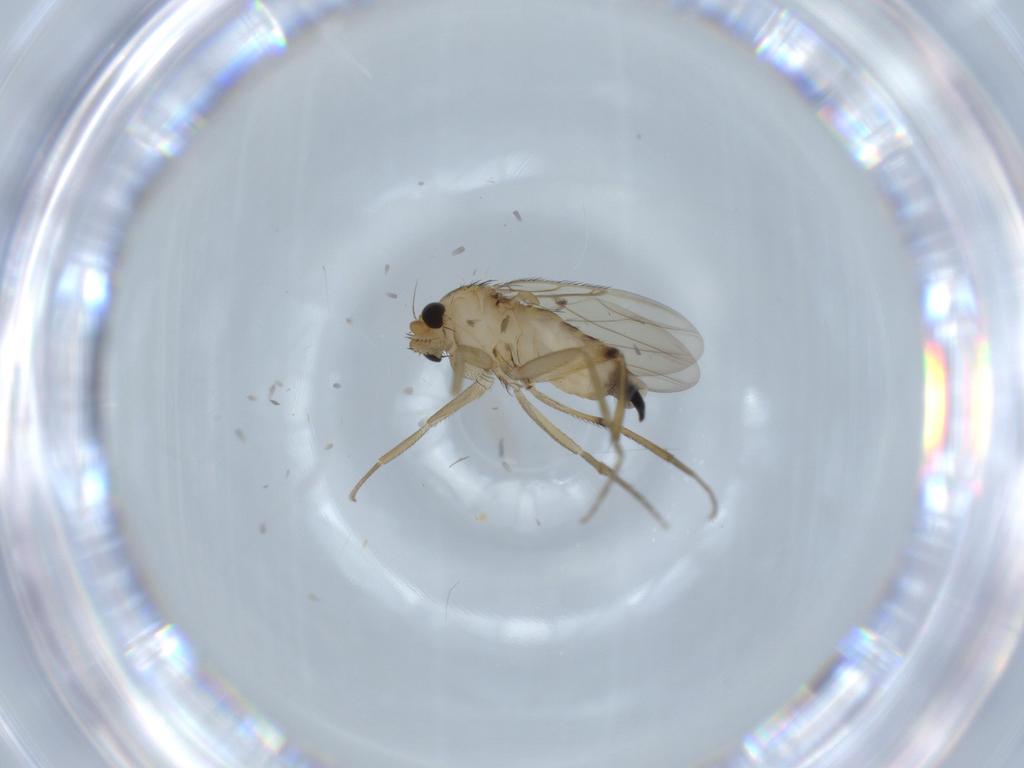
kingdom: Animalia
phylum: Arthropoda
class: Insecta
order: Diptera
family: Phoridae
